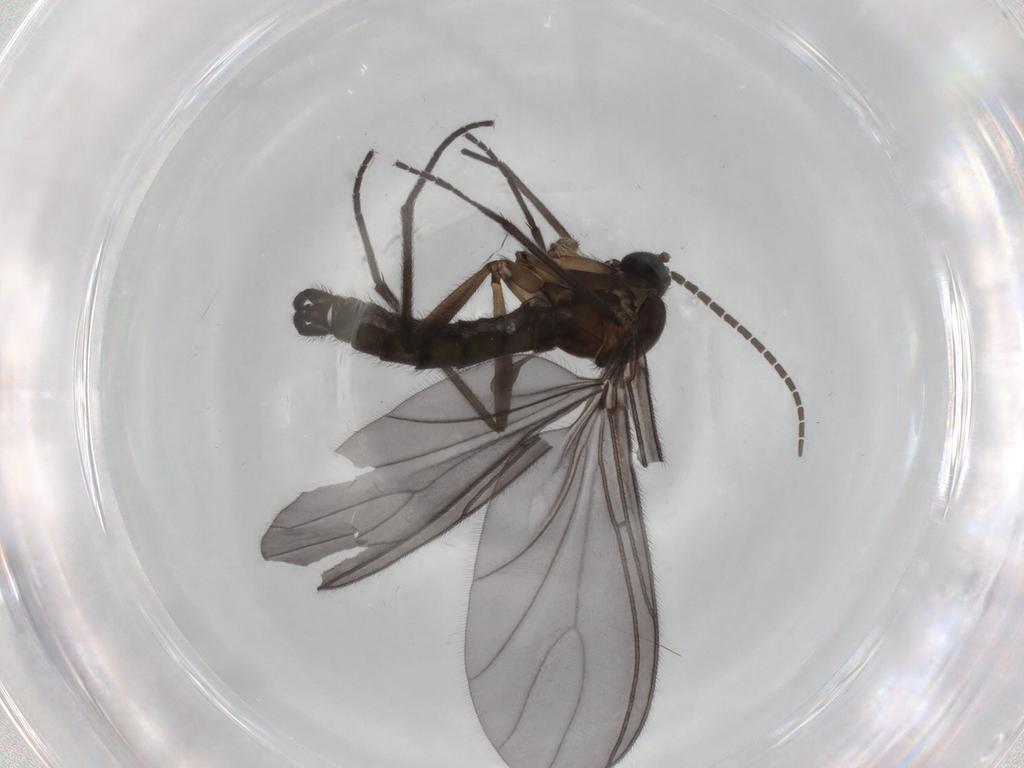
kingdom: Animalia
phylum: Arthropoda
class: Insecta
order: Diptera
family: Sciaridae
